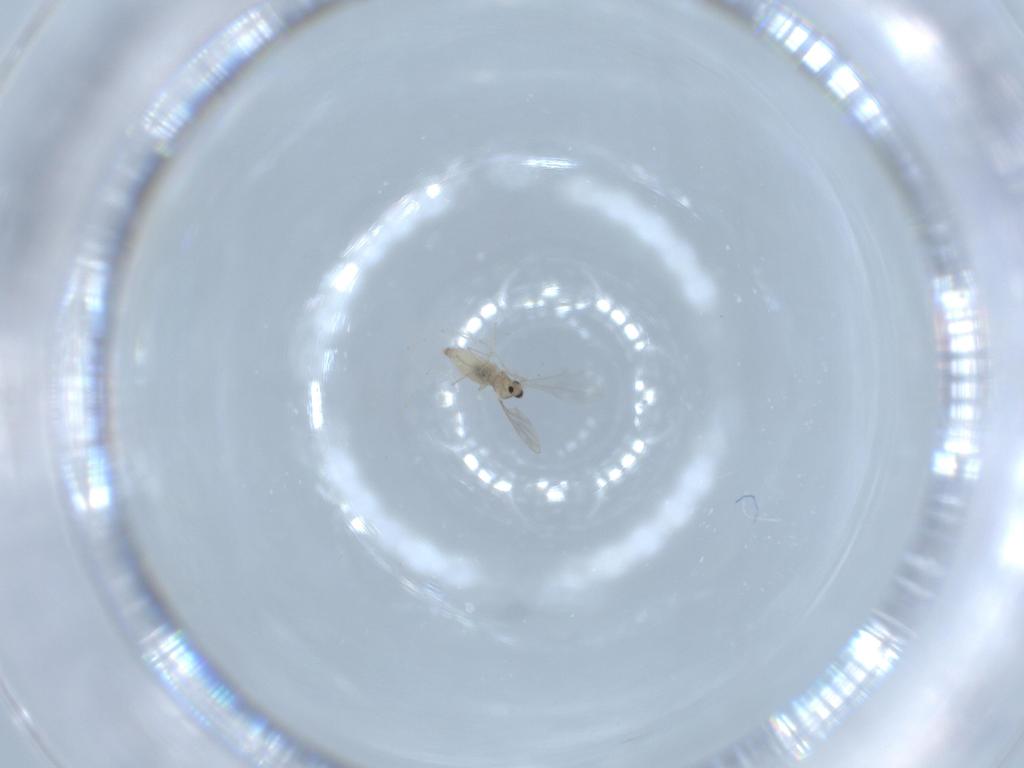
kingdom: Animalia
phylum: Arthropoda
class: Insecta
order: Diptera
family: Cecidomyiidae
